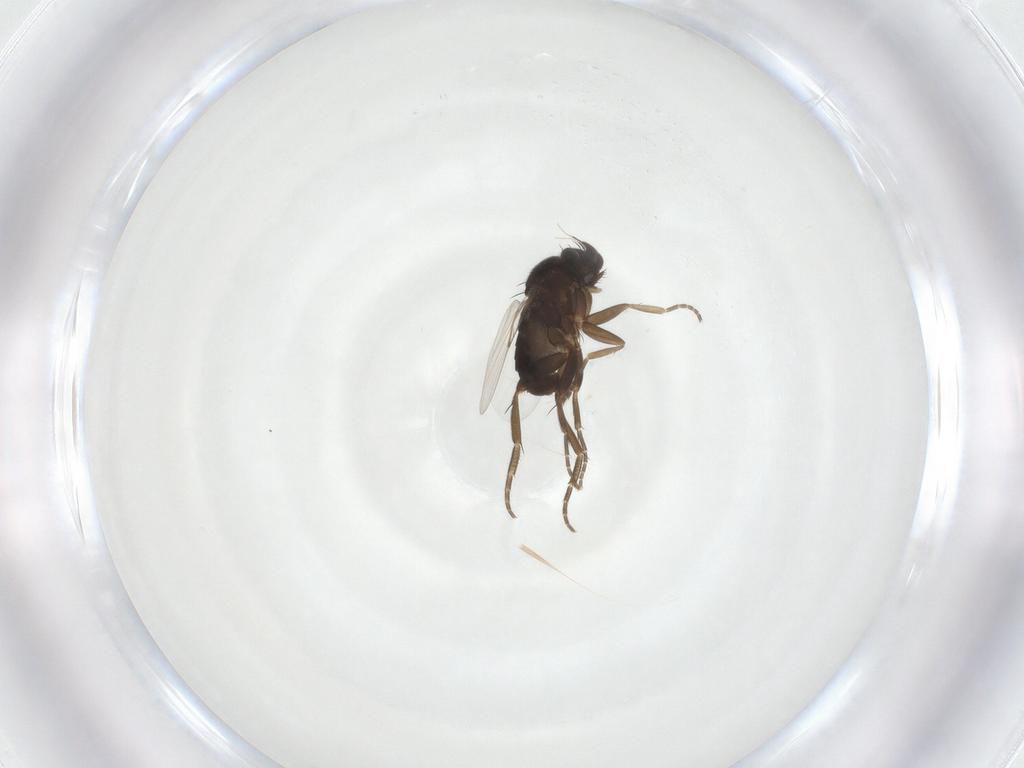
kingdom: Animalia
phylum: Arthropoda
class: Insecta
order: Diptera
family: Phoridae
